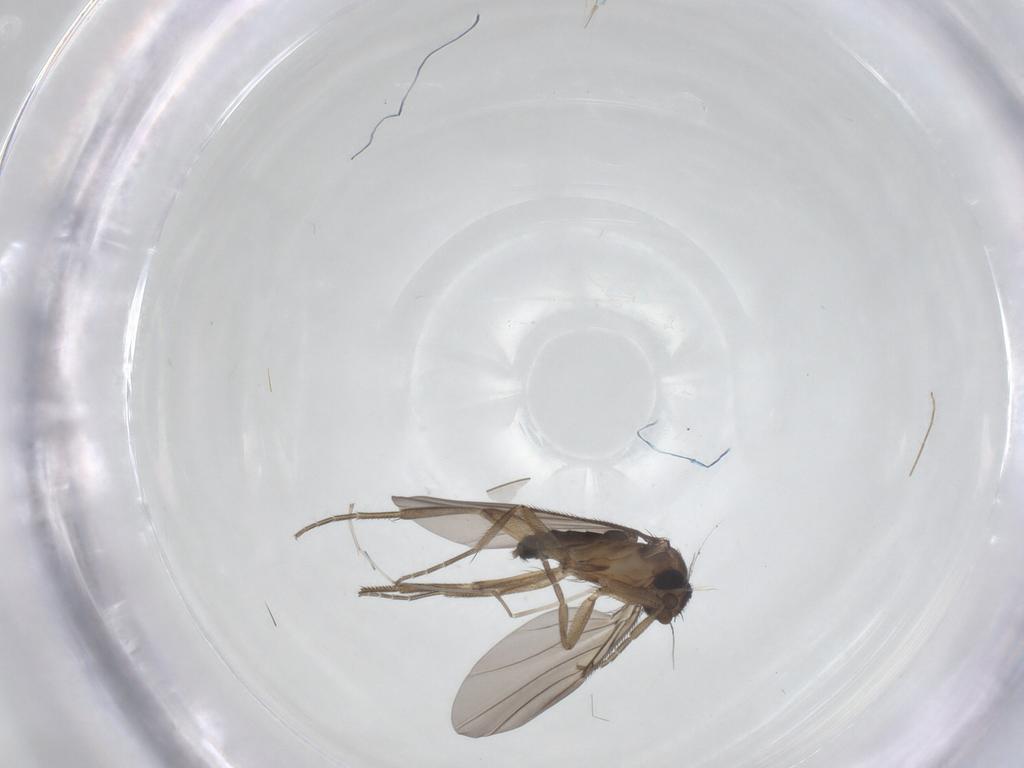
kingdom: Animalia
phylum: Arthropoda
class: Insecta
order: Diptera
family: Cecidomyiidae
